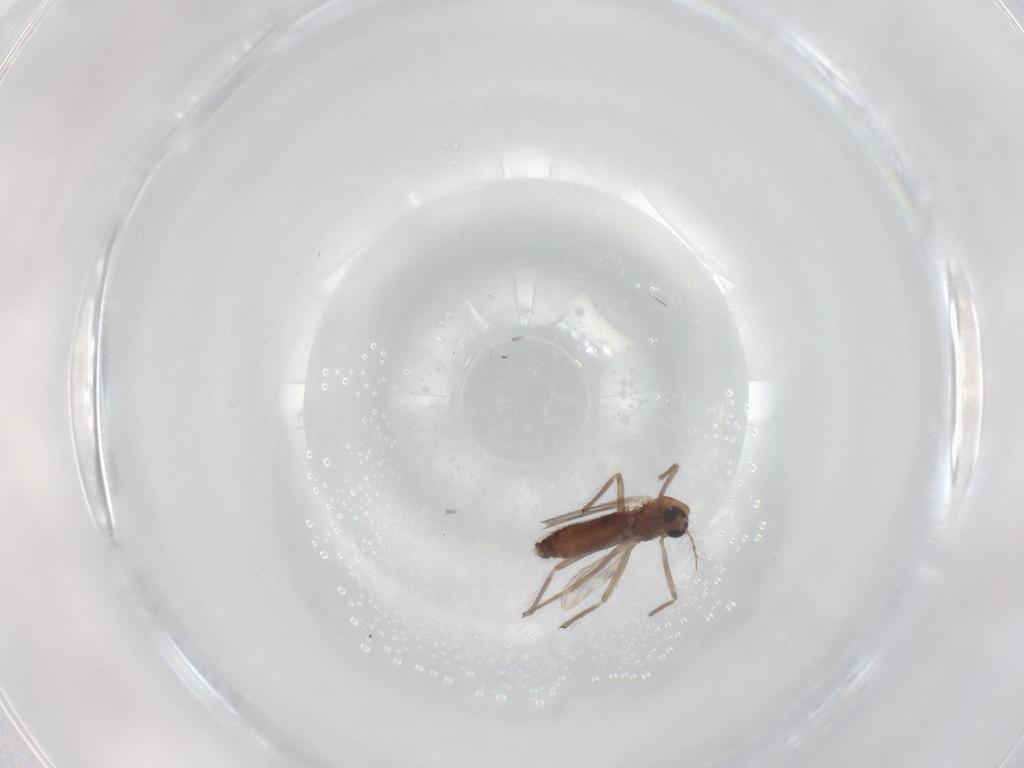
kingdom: Animalia
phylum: Arthropoda
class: Insecta
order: Diptera
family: Chironomidae
